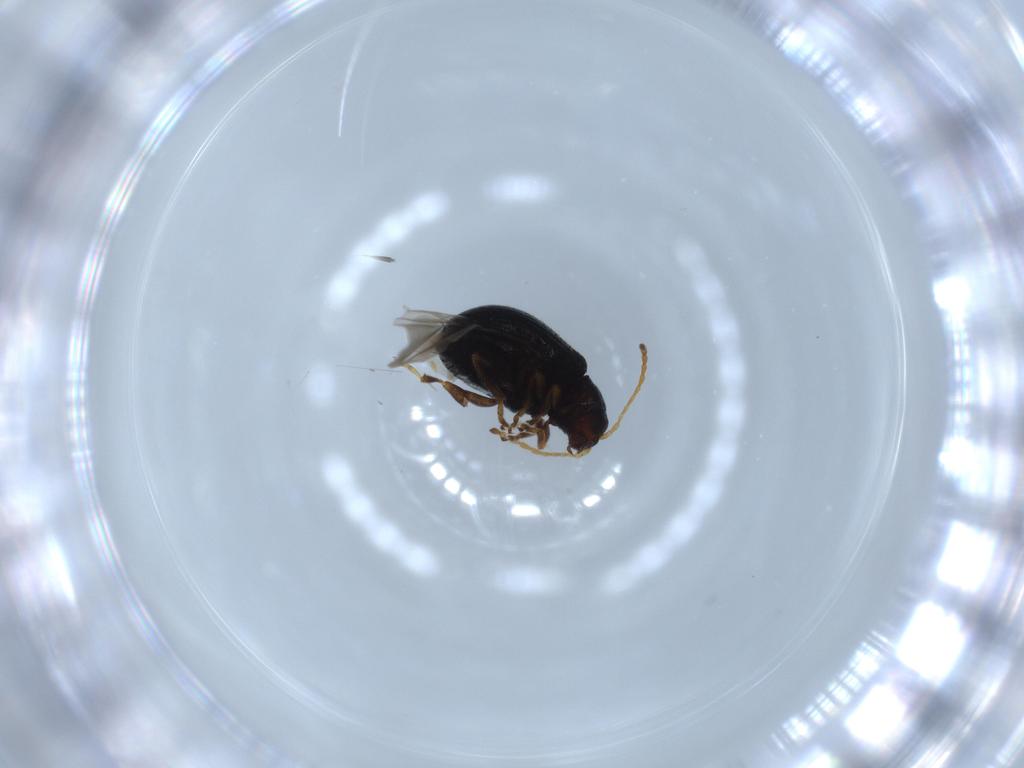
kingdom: Animalia
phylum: Arthropoda
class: Insecta
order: Coleoptera
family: Chrysomelidae
